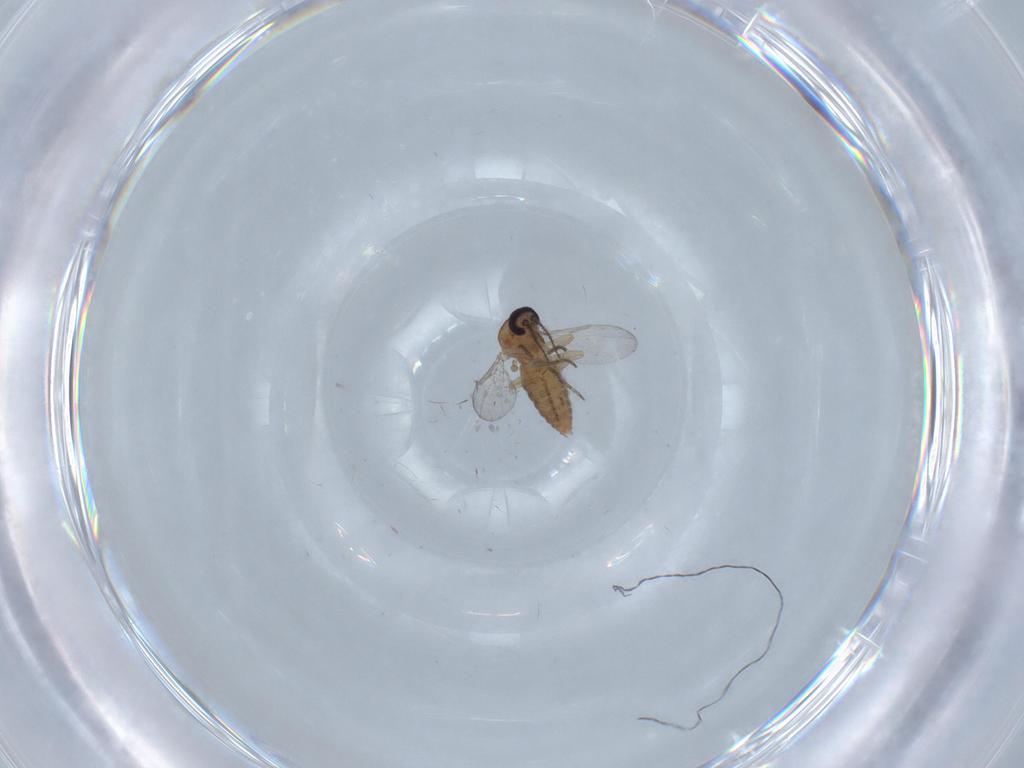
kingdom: Animalia
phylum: Arthropoda
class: Insecta
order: Diptera
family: Ceratopogonidae
